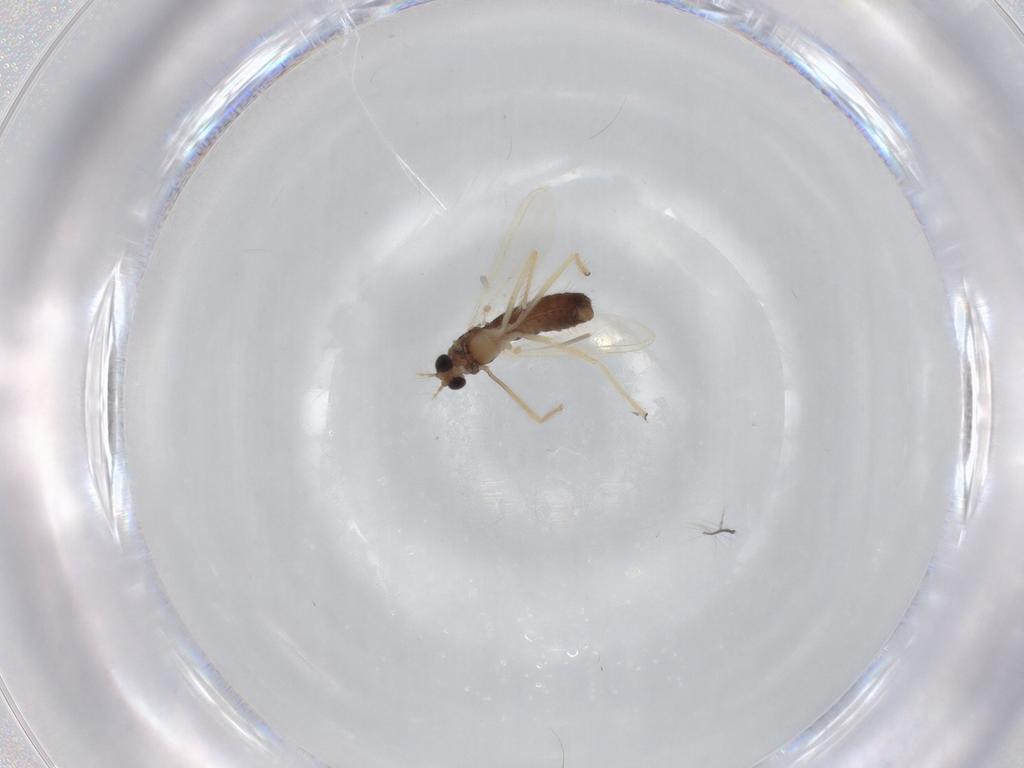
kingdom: Animalia
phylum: Arthropoda
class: Insecta
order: Diptera
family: Chironomidae
